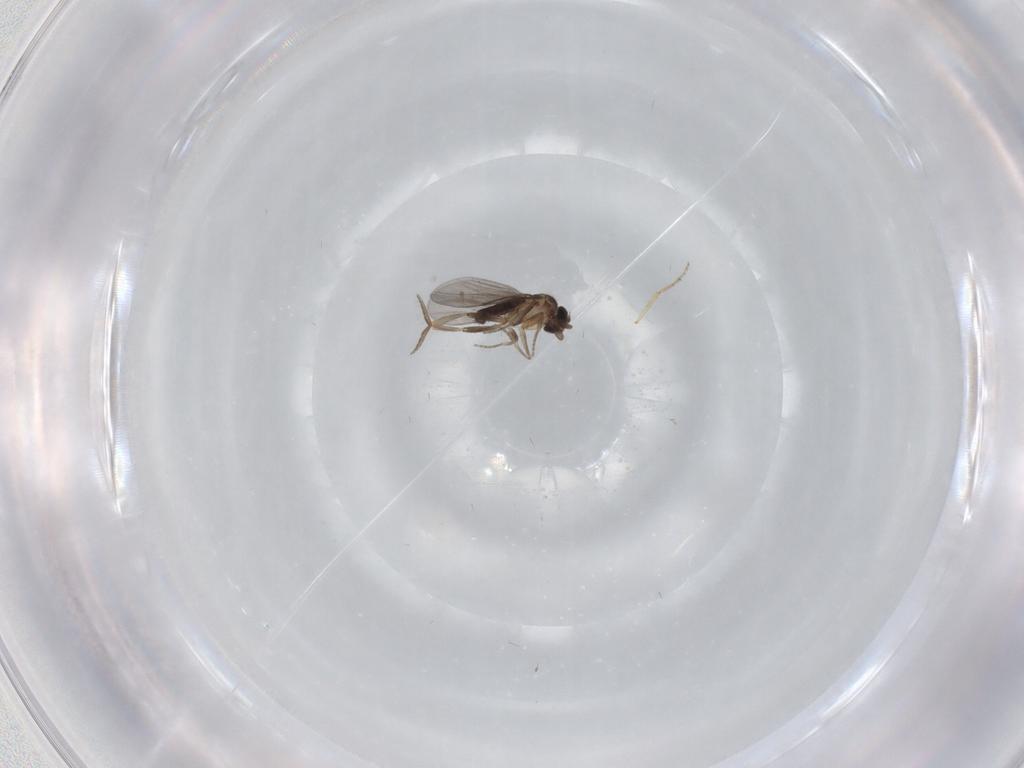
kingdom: Animalia
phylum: Arthropoda
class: Insecta
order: Diptera
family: Ceratopogonidae
